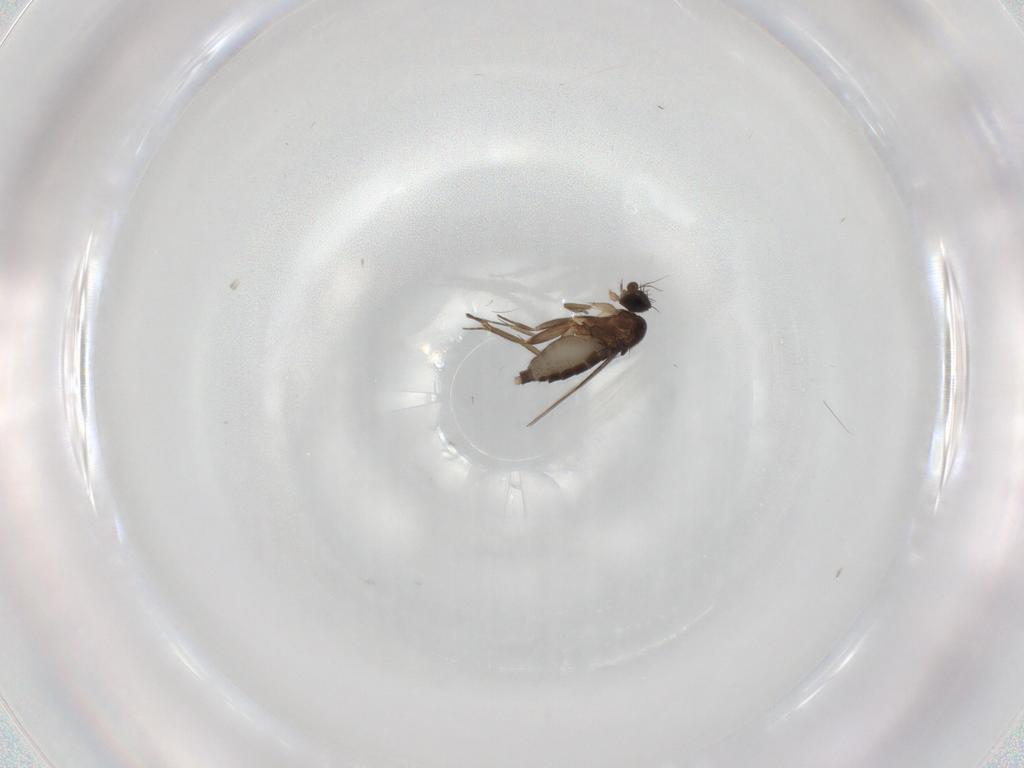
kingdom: Animalia
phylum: Arthropoda
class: Insecta
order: Diptera
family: Phoridae
